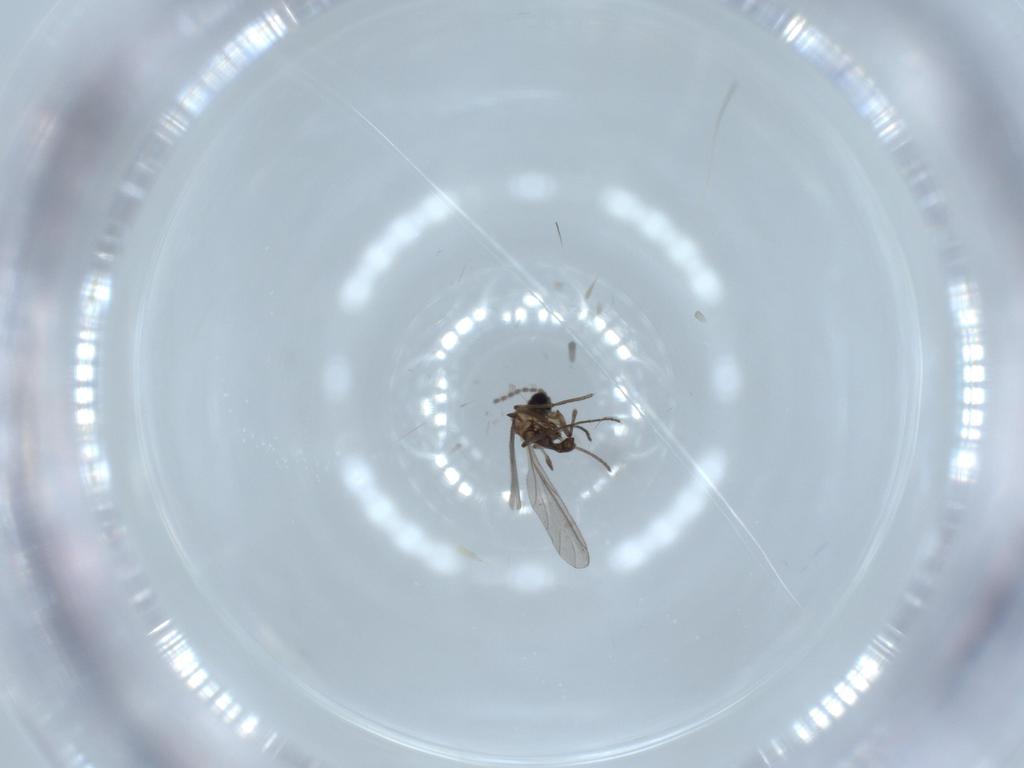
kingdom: Animalia
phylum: Arthropoda
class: Insecta
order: Diptera
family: Sciaridae
